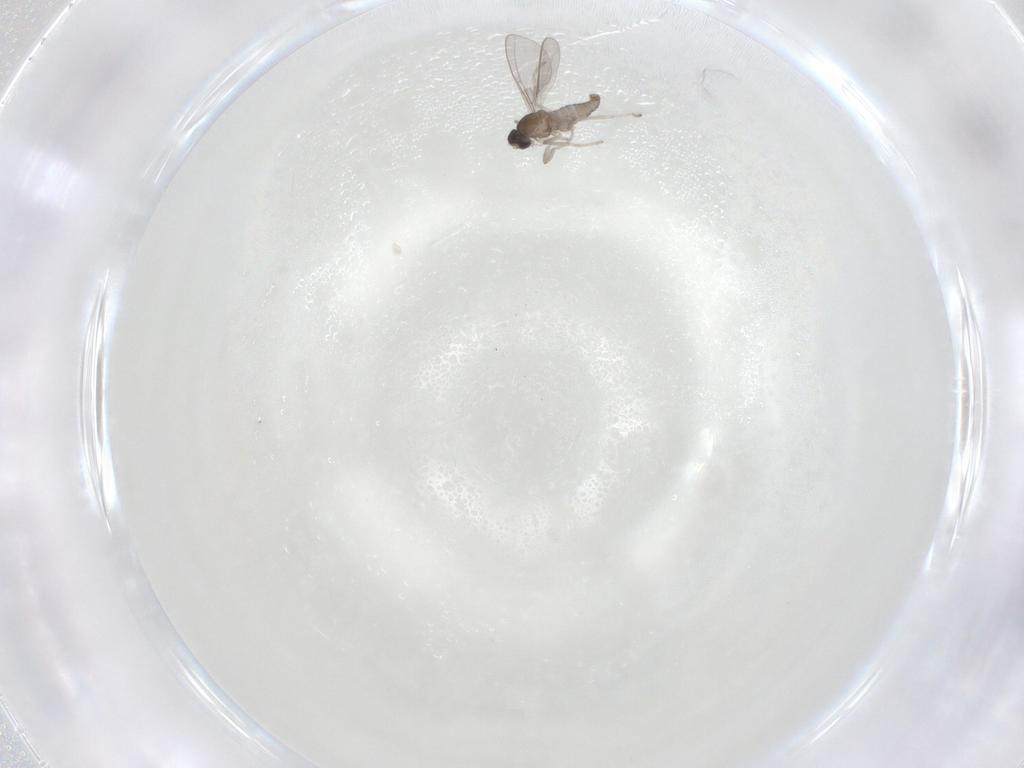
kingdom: Animalia
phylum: Arthropoda
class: Insecta
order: Diptera
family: Cecidomyiidae
